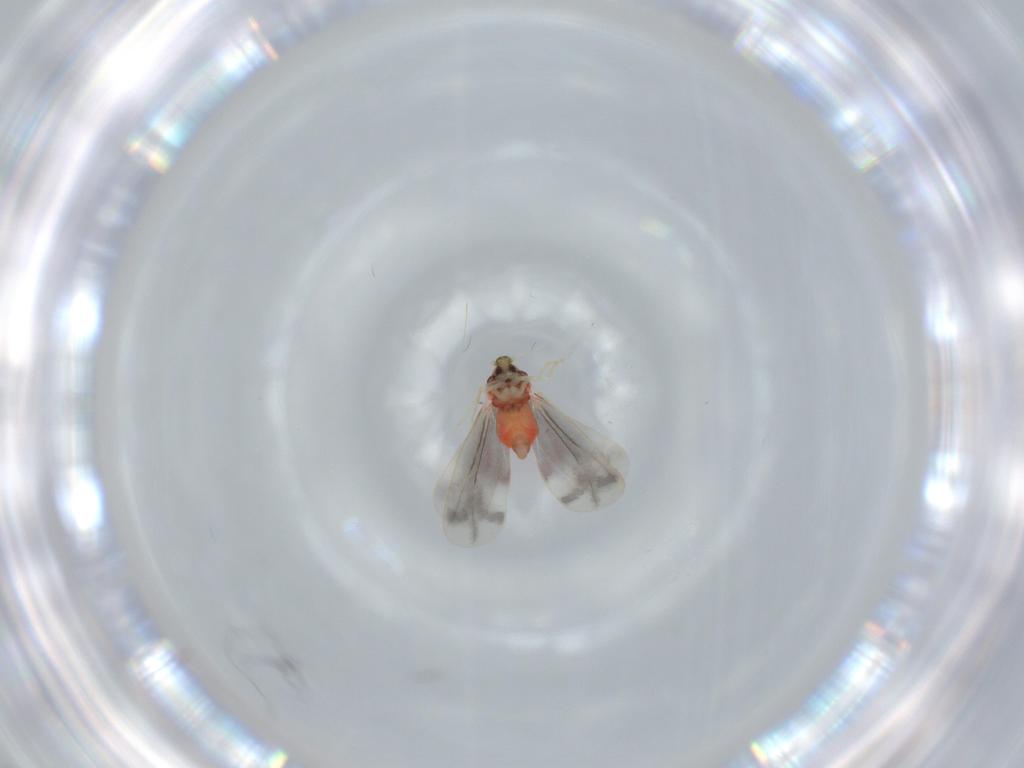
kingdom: Animalia
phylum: Arthropoda
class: Insecta
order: Hemiptera
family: Aleyrodidae
